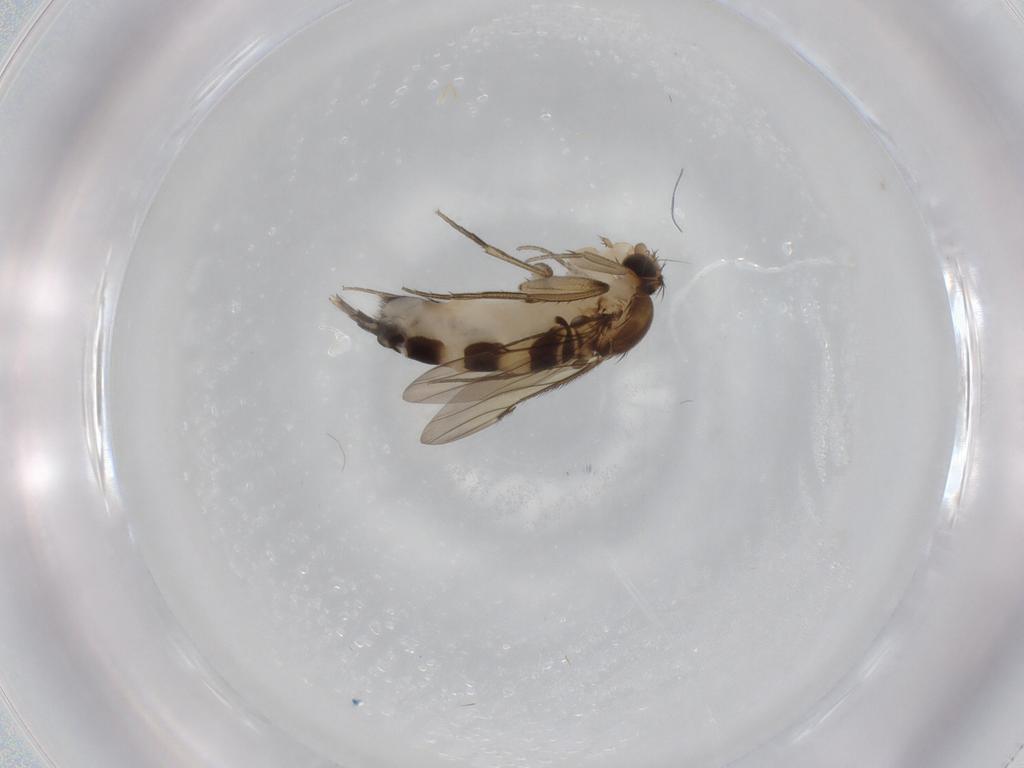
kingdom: Animalia
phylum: Arthropoda
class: Insecta
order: Diptera
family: Phoridae
